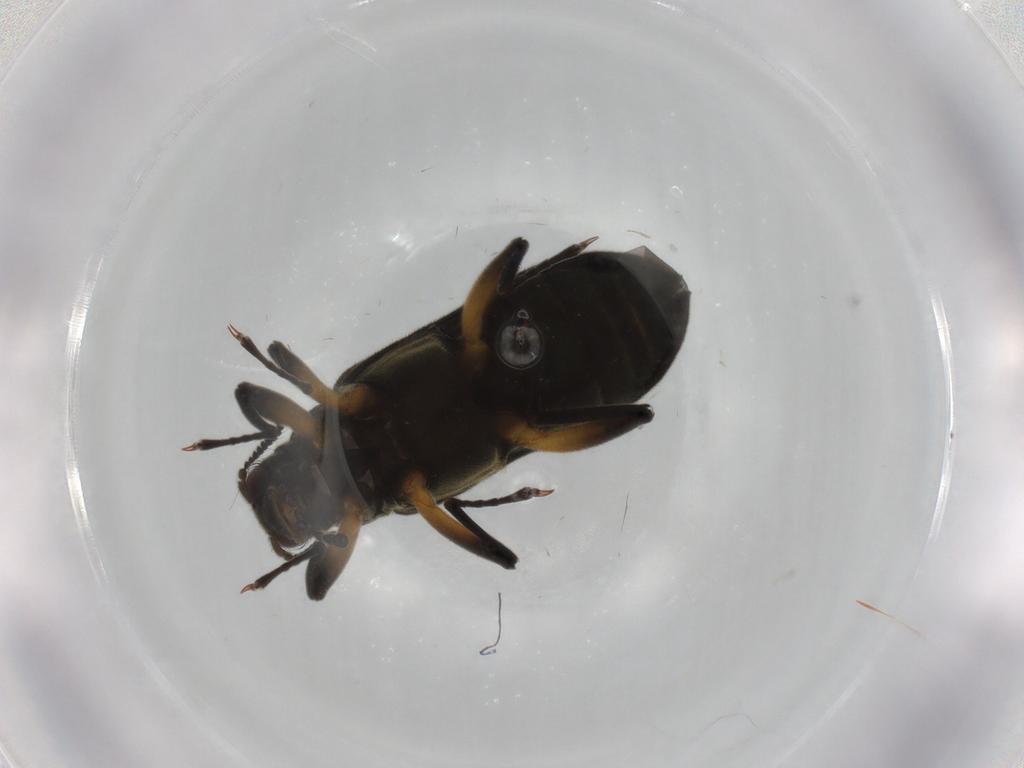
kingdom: Animalia
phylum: Arthropoda
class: Insecta
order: Coleoptera
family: Elmidae
